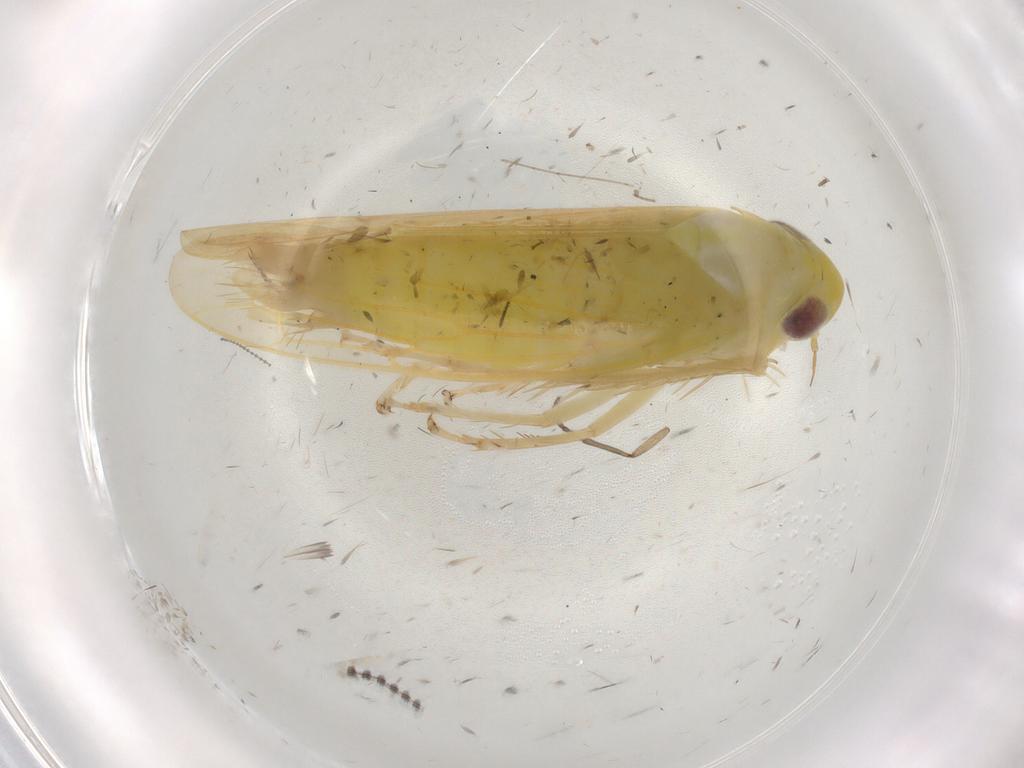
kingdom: Animalia
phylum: Arthropoda
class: Insecta
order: Hemiptera
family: Cicadellidae
